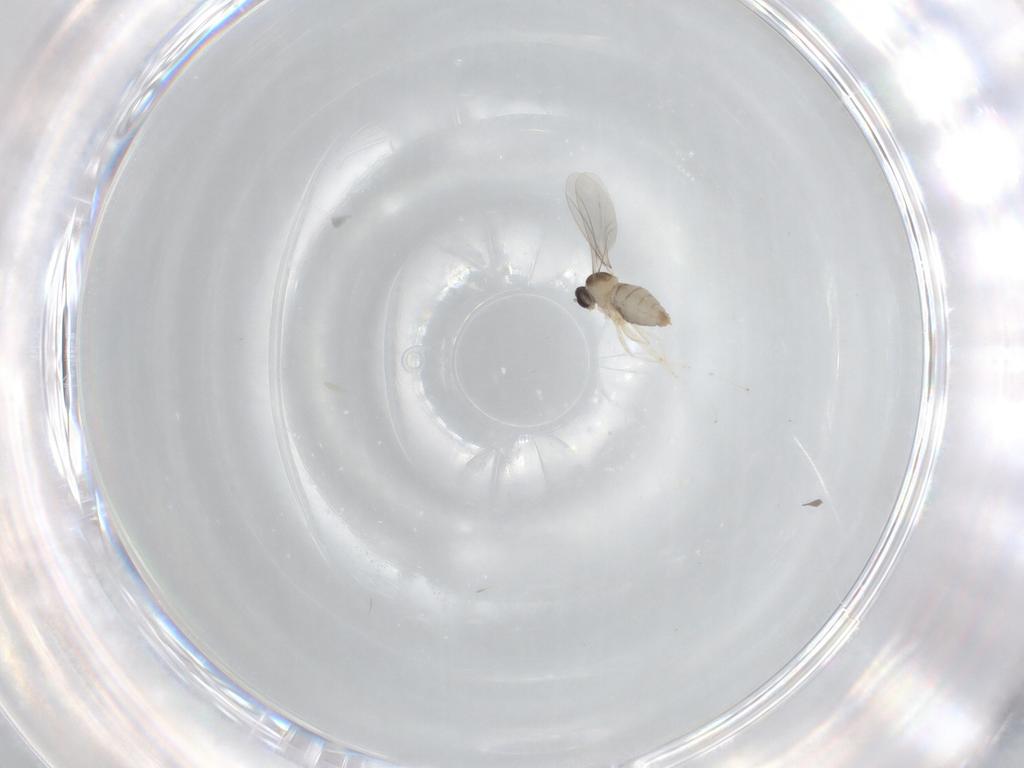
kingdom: Animalia
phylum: Arthropoda
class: Insecta
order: Diptera
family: Cecidomyiidae
